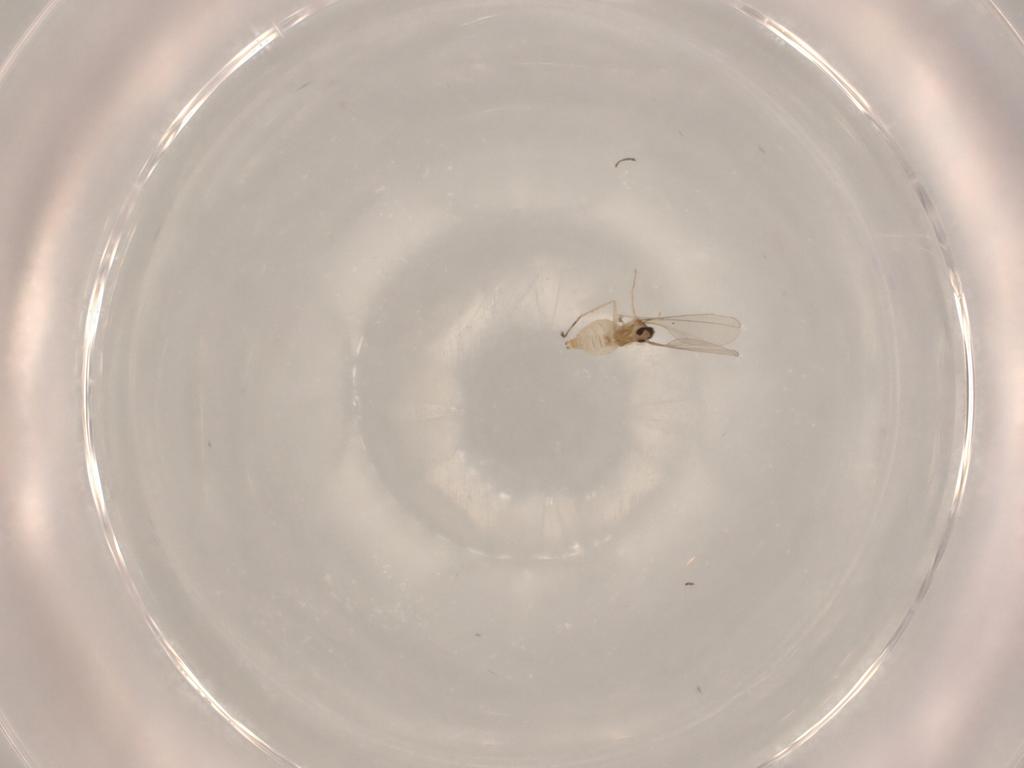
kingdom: Animalia
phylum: Arthropoda
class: Insecta
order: Diptera
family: Cecidomyiidae
